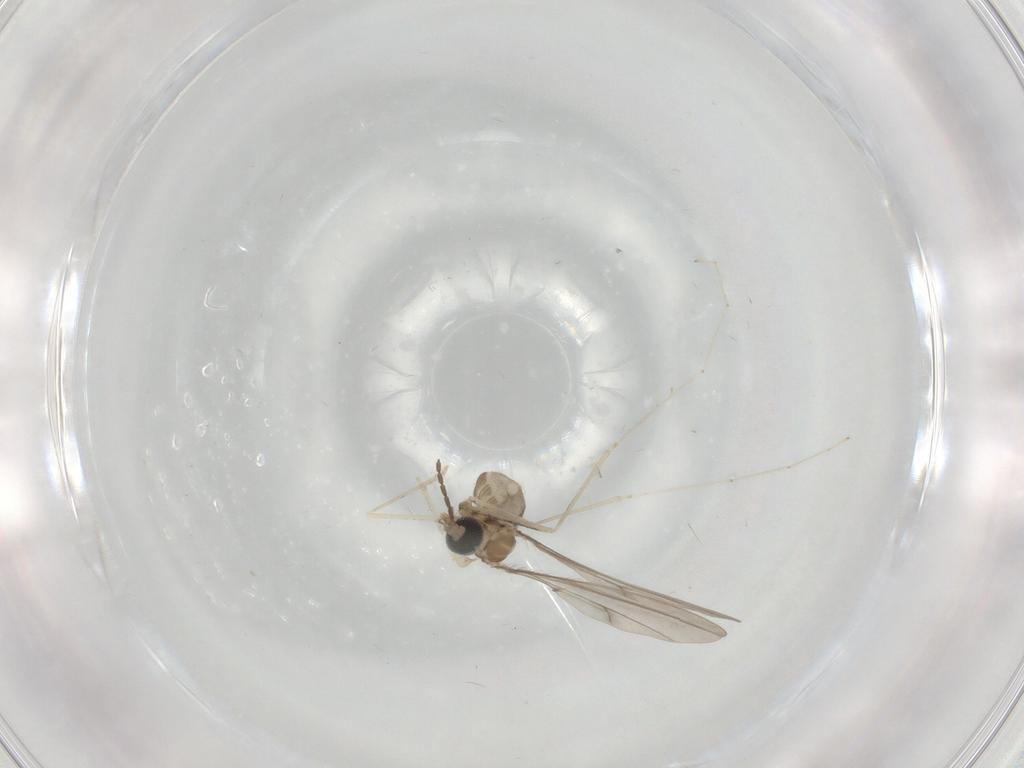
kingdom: Animalia
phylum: Arthropoda
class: Insecta
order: Diptera
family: Cecidomyiidae
